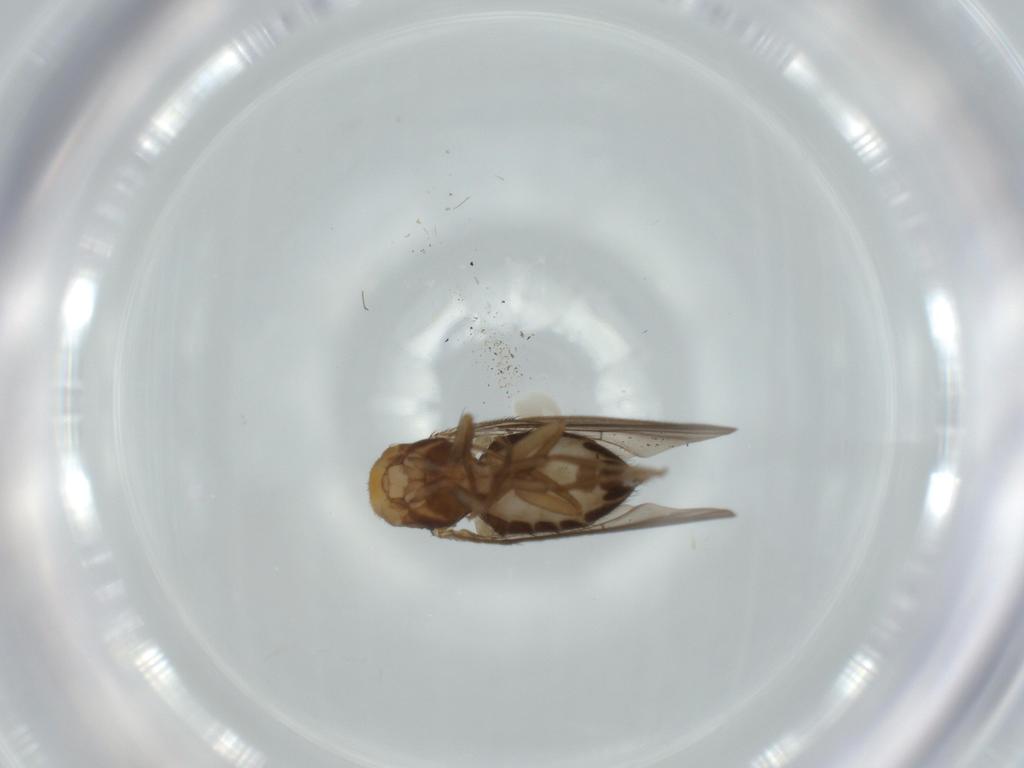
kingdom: Animalia
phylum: Arthropoda
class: Insecta
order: Diptera
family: Drosophilidae
